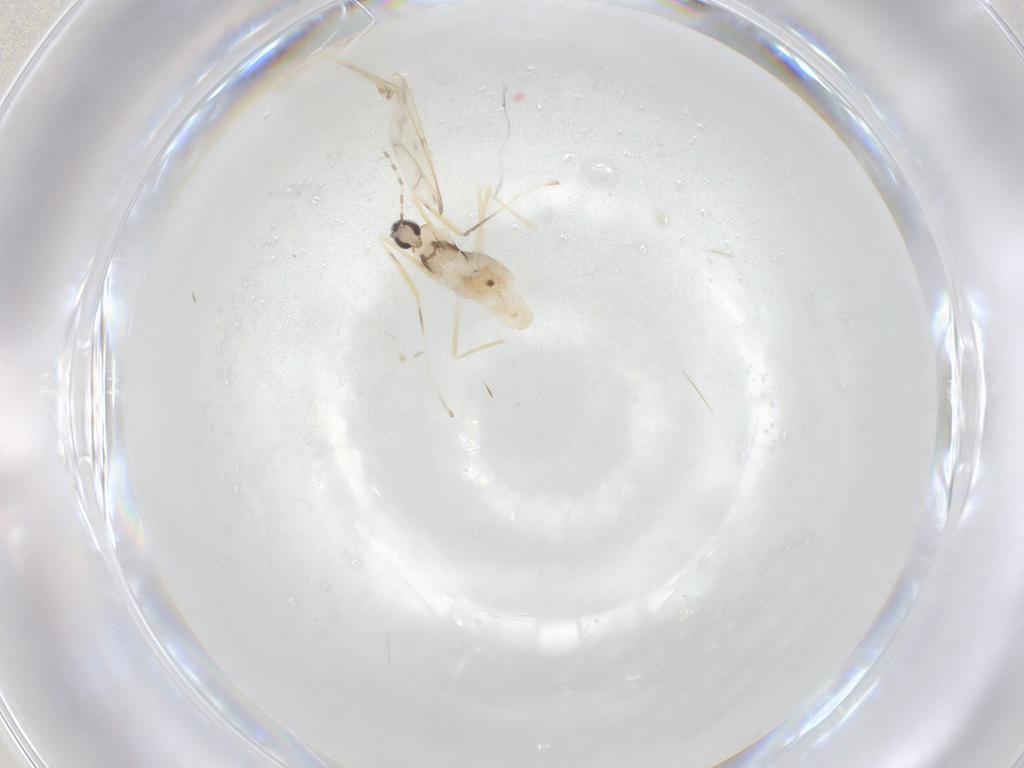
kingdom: Animalia
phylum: Arthropoda
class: Insecta
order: Diptera
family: Cecidomyiidae
